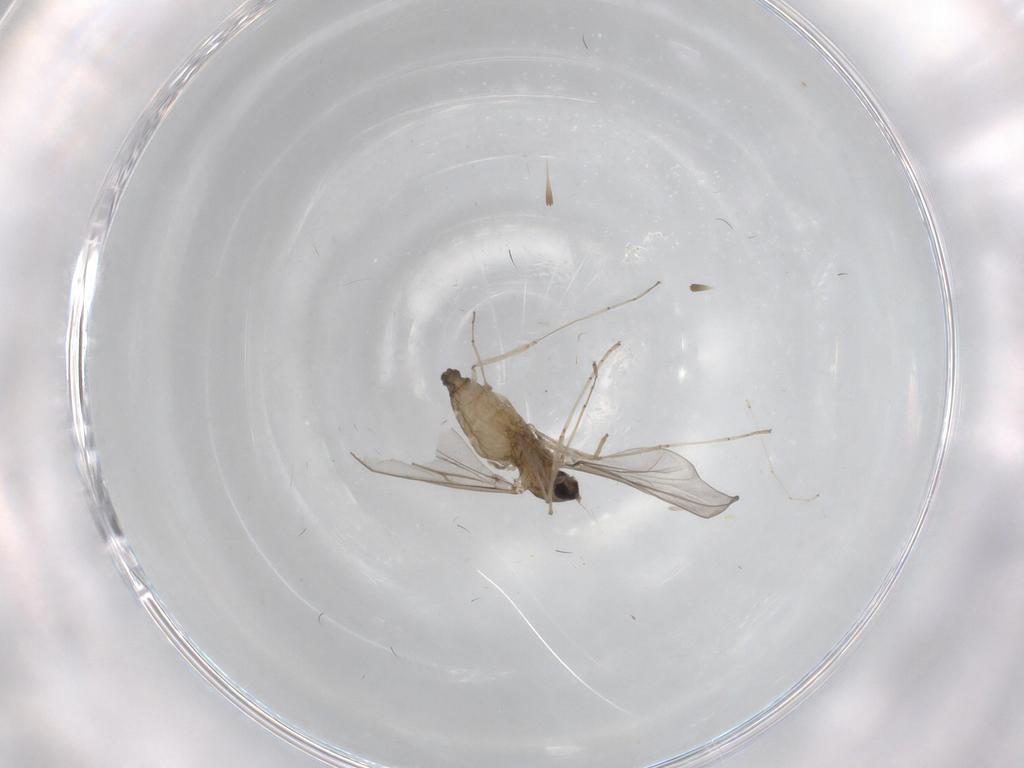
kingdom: Animalia
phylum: Arthropoda
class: Insecta
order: Diptera
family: Cecidomyiidae
